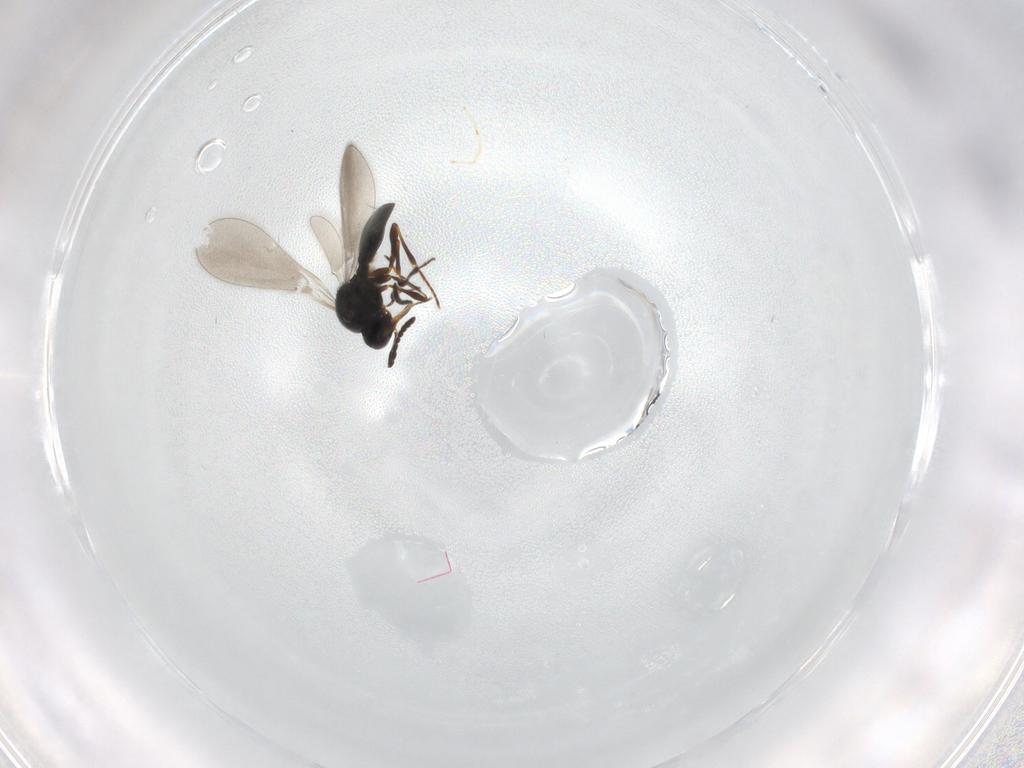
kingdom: Animalia
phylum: Arthropoda
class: Insecta
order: Hymenoptera
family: Platygastridae
